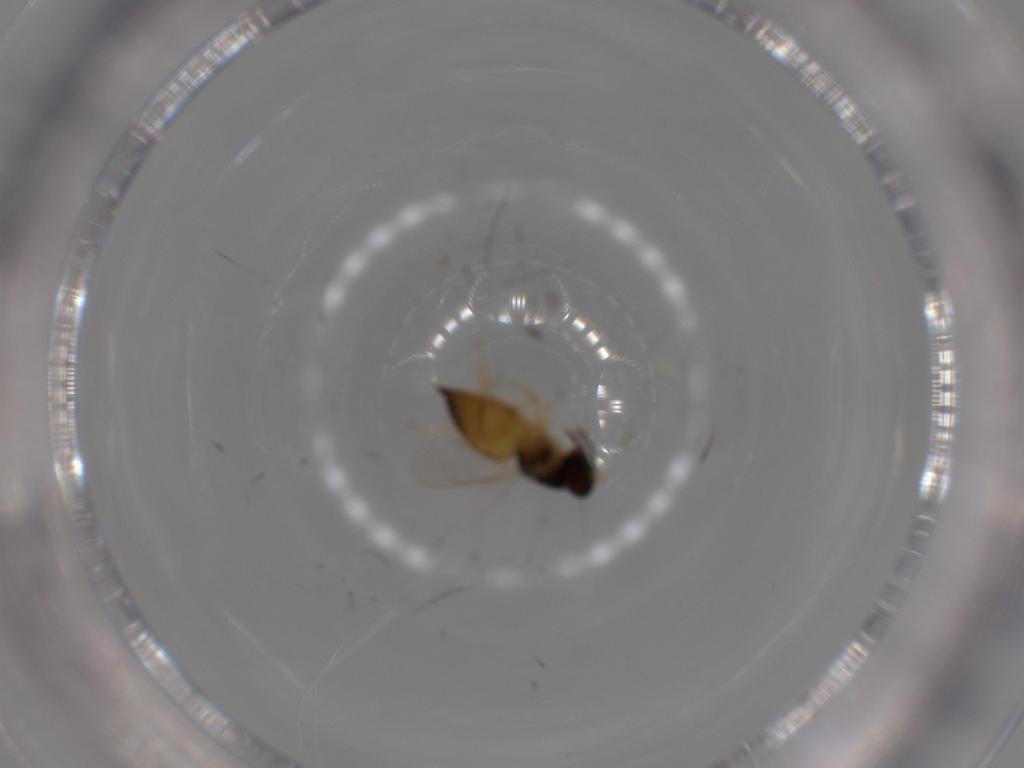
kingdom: Animalia
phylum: Arthropoda
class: Insecta
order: Hymenoptera
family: Eulophidae
